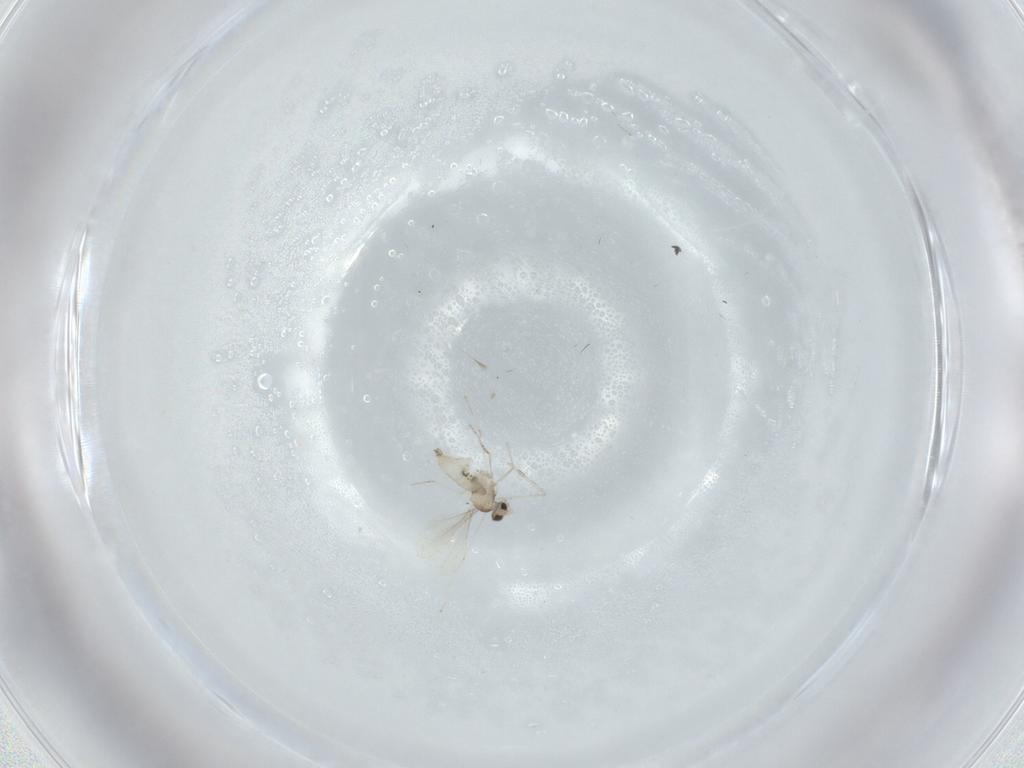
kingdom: Animalia
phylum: Arthropoda
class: Insecta
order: Diptera
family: Cecidomyiidae
